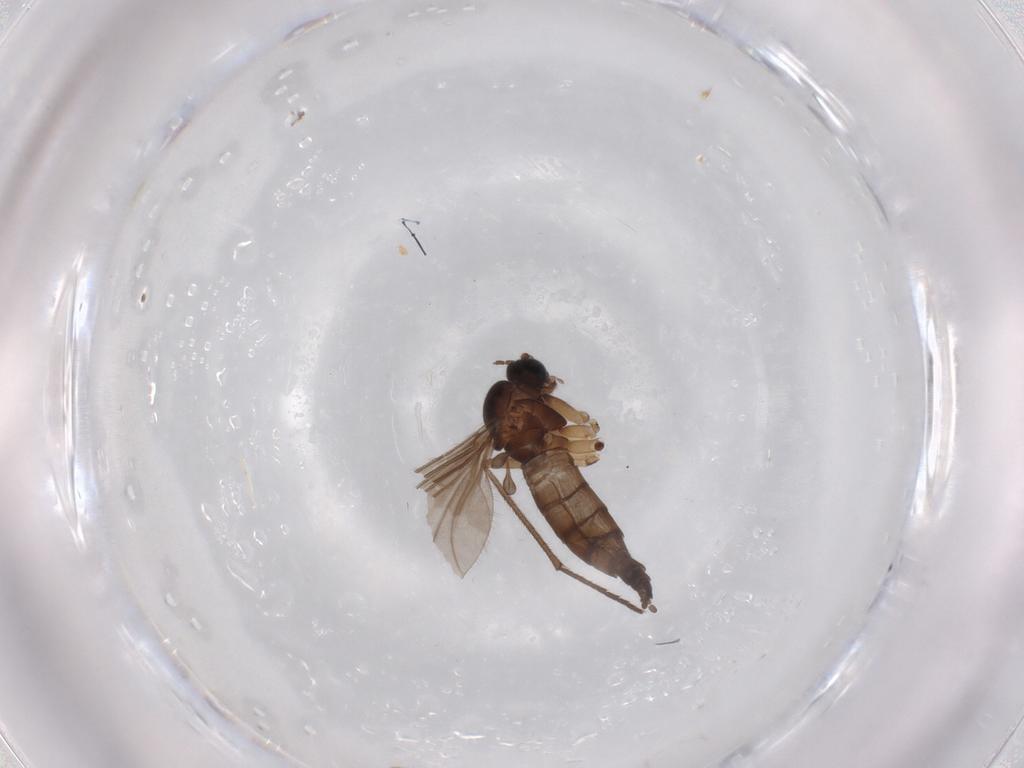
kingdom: Animalia
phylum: Arthropoda
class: Insecta
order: Diptera
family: Sciaridae
